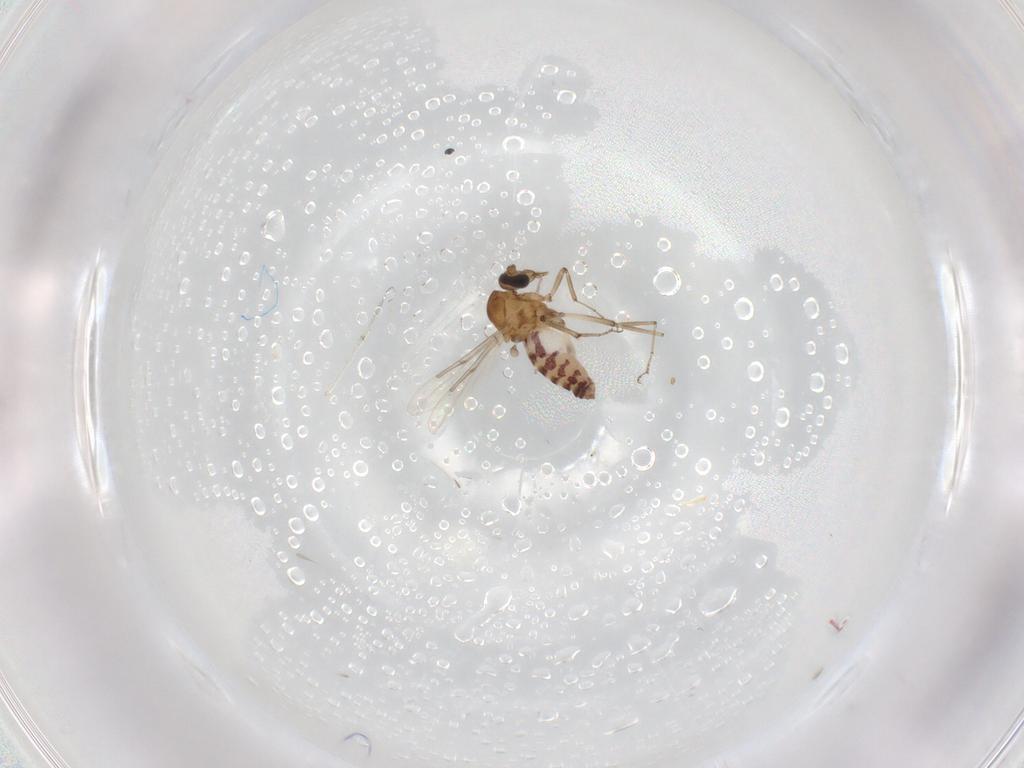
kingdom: Animalia
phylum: Arthropoda
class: Insecta
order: Diptera
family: Ceratopogonidae
